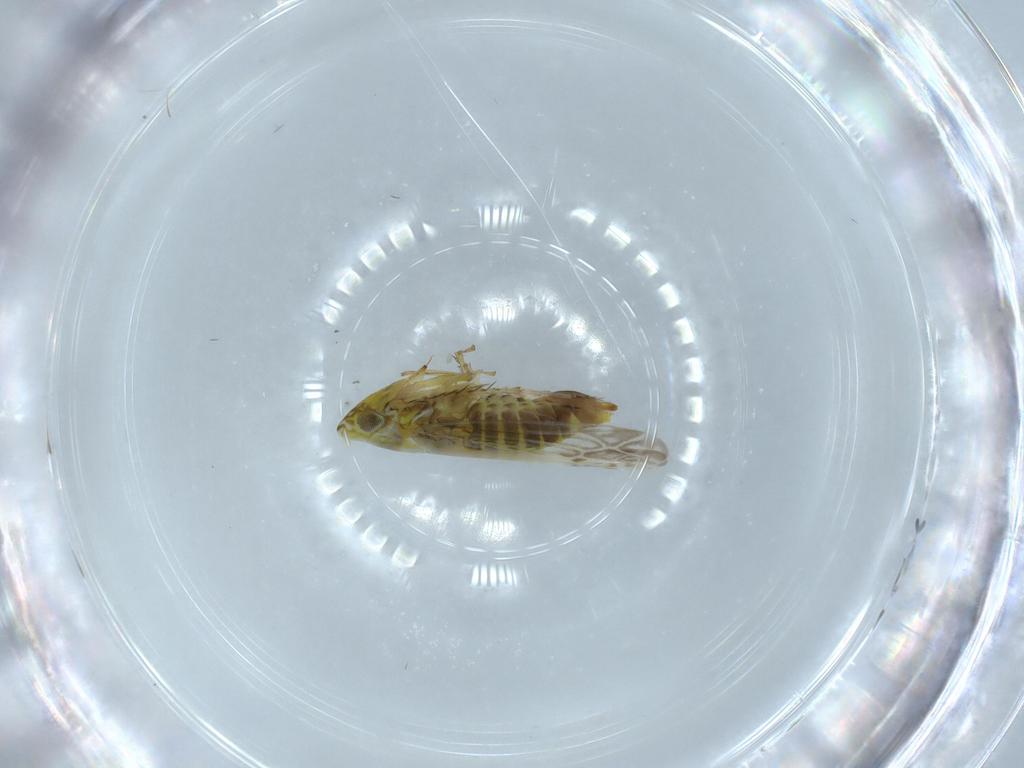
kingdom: Animalia
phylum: Arthropoda
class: Insecta
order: Hemiptera
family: Cicadellidae
